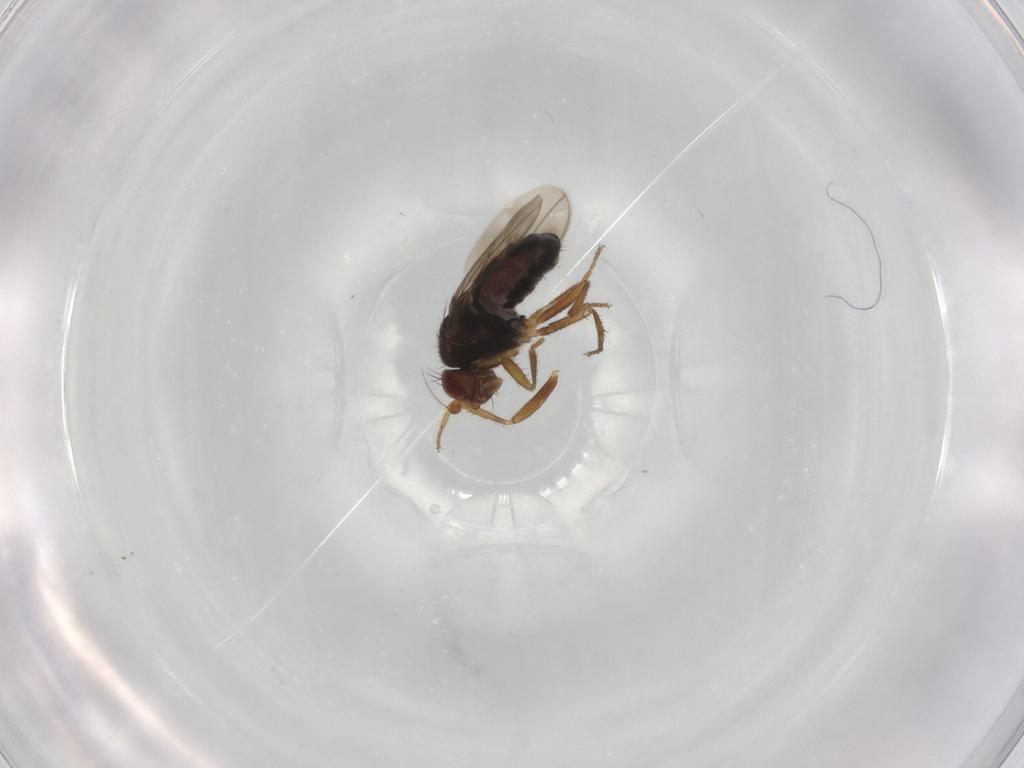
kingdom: Animalia
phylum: Arthropoda
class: Insecta
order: Diptera
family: Sphaeroceridae
